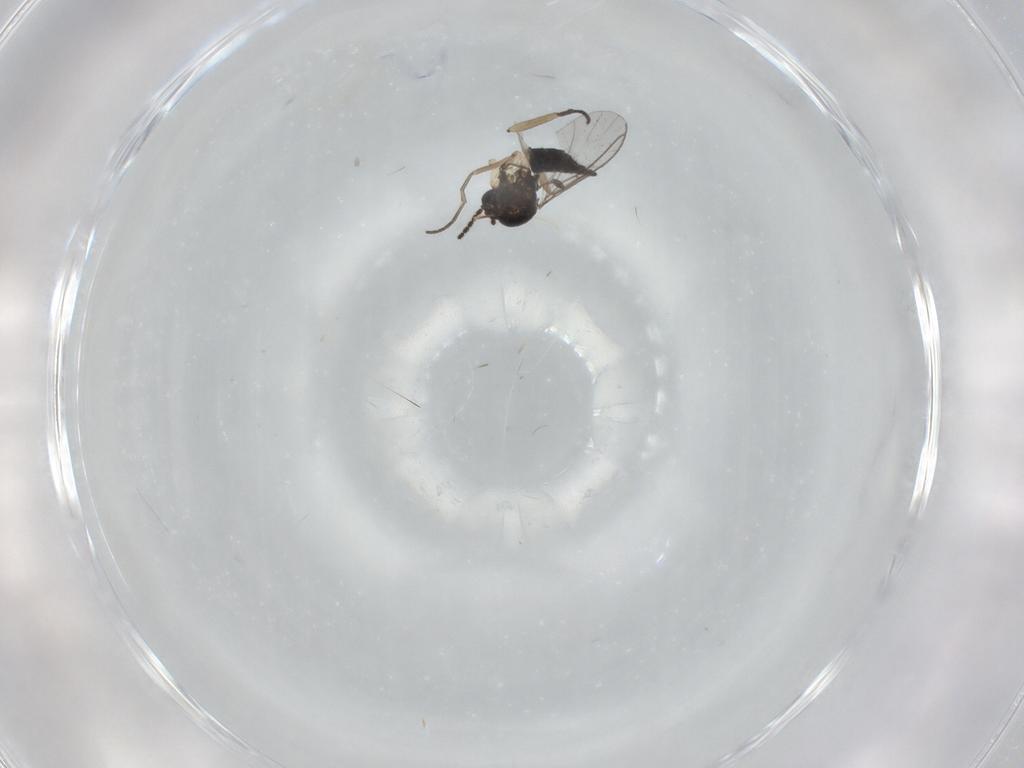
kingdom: Animalia
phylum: Arthropoda
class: Insecta
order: Diptera
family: Sciaridae
